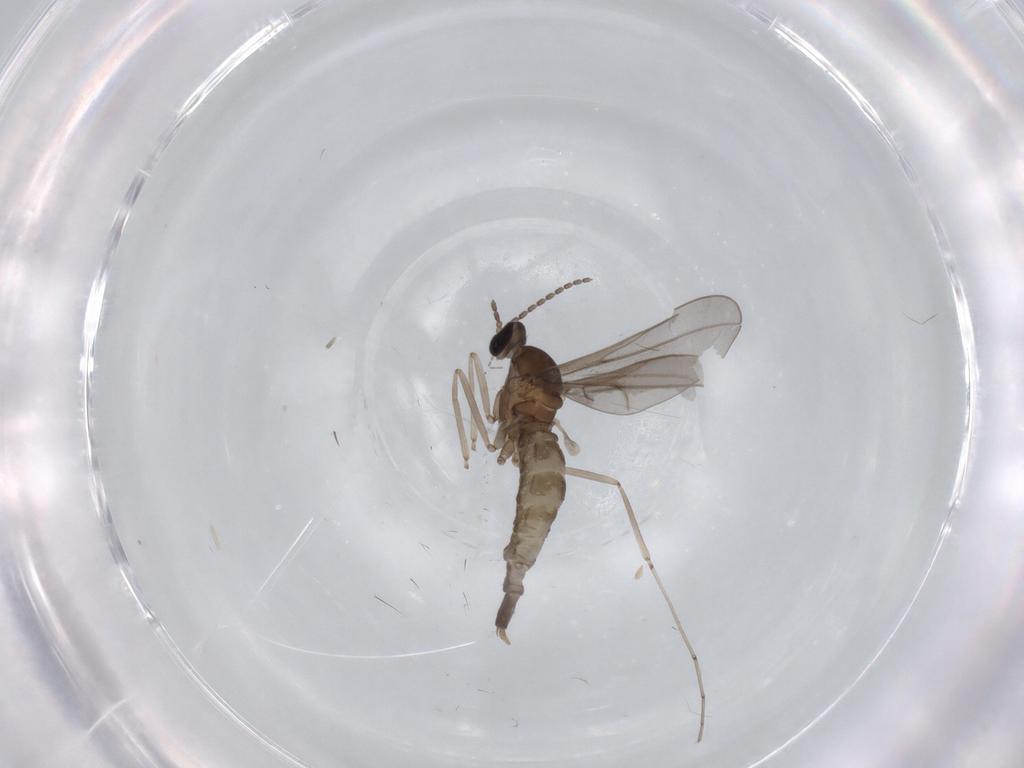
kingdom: Animalia
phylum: Arthropoda
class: Insecta
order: Diptera
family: Cecidomyiidae
